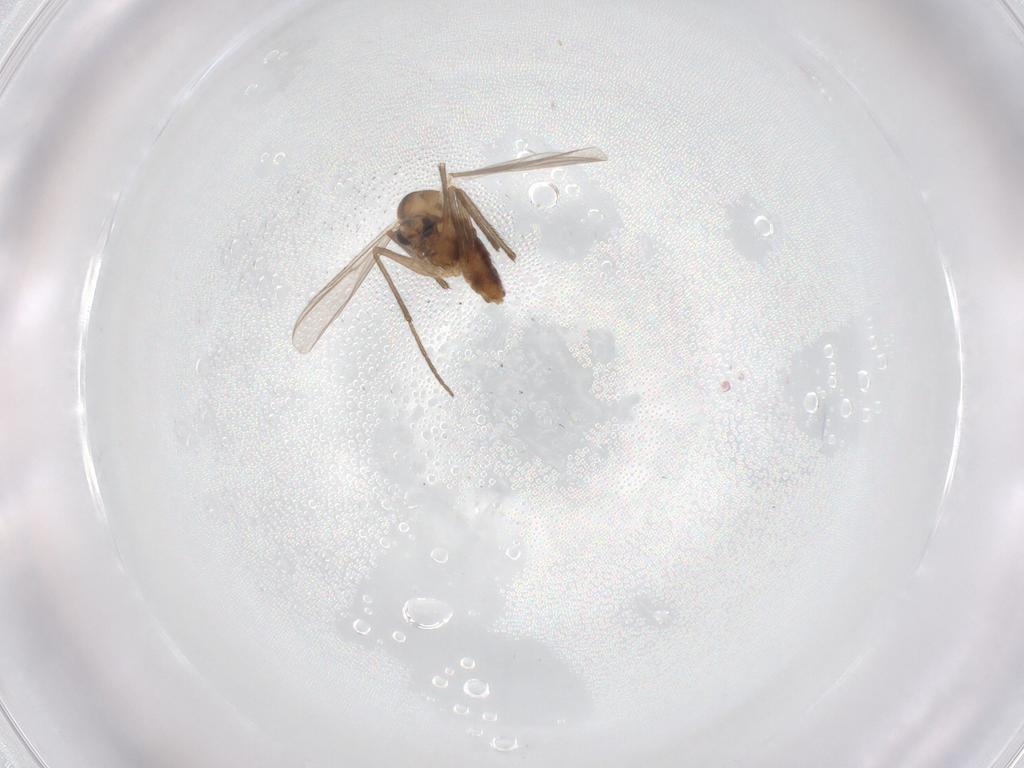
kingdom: Animalia
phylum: Arthropoda
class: Insecta
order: Diptera
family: Chironomidae
